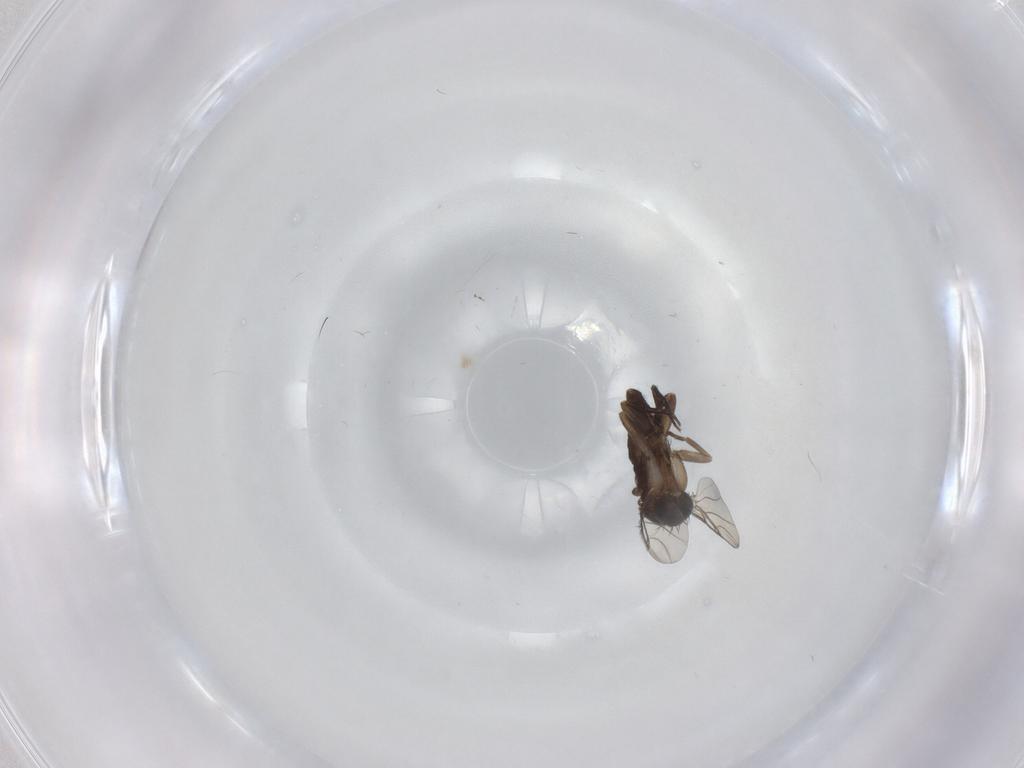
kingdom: Animalia
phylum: Arthropoda
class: Insecta
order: Diptera
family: Phoridae
